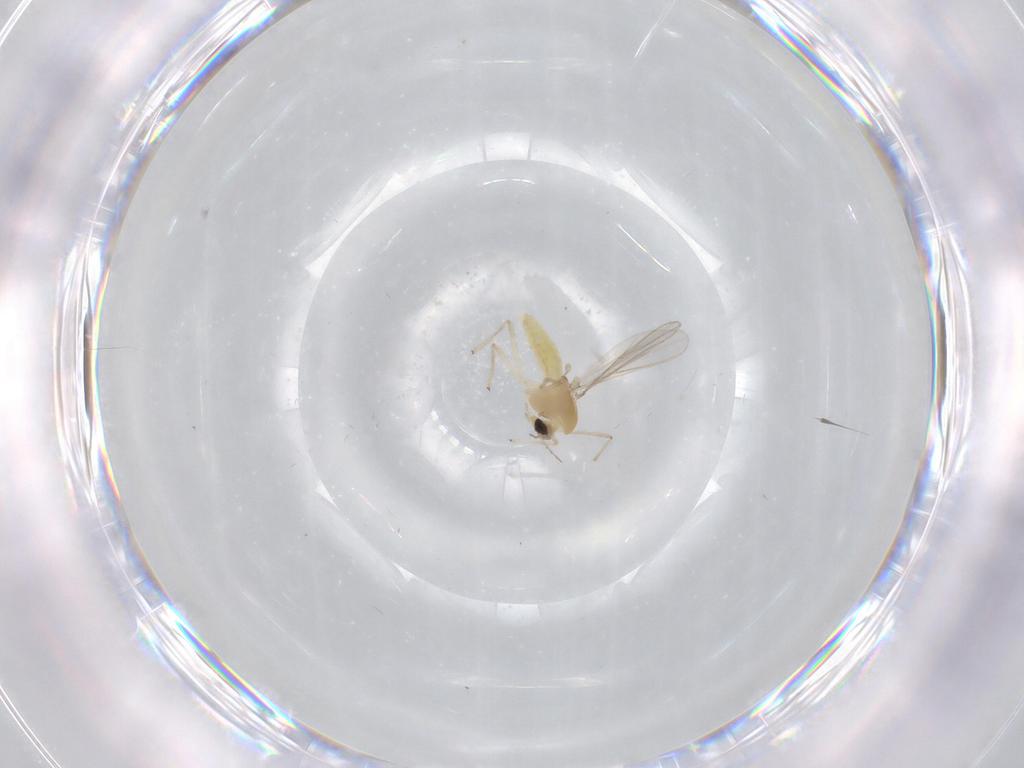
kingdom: Animalia
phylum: Arthropoda
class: Insecta
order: Diptera
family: Chironomidae
